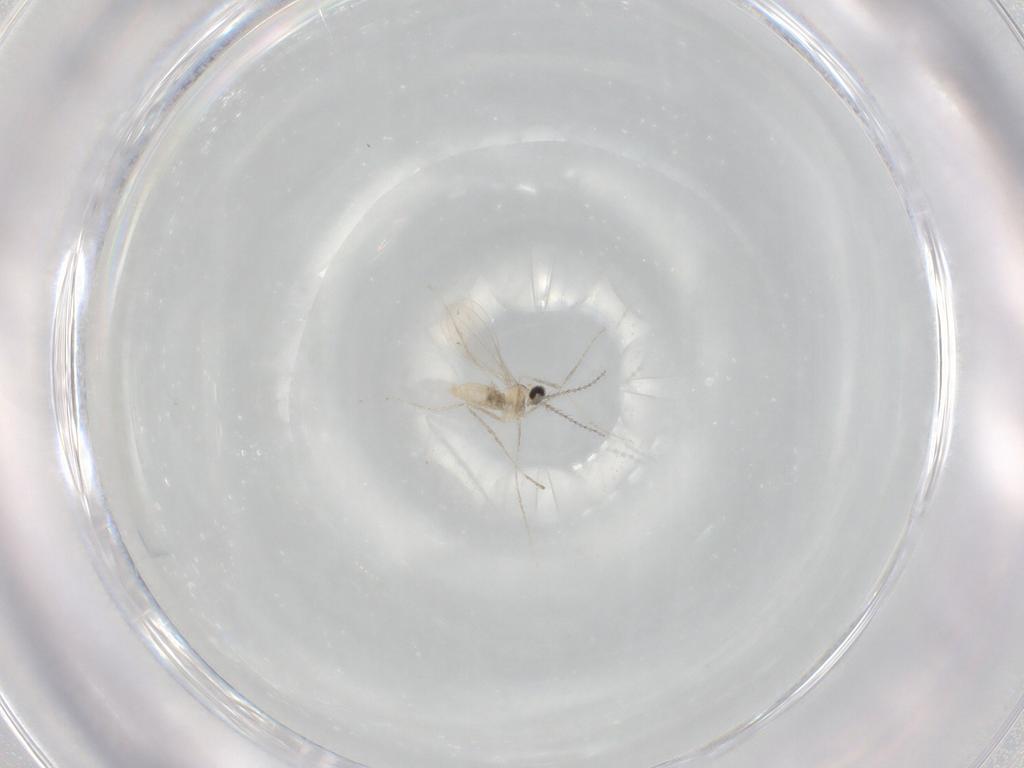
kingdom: Animalia
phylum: Arthropoda
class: Insecta
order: Diptera
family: Cecidomyiidae
